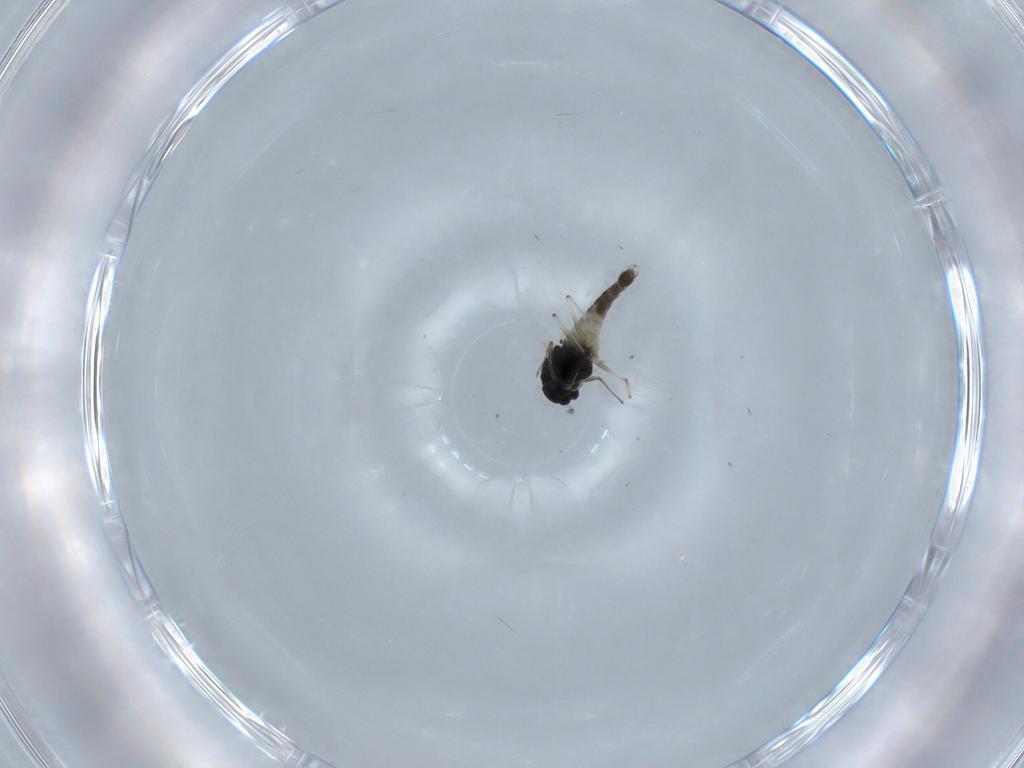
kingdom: Animalia
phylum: Arthropoda
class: Insecta
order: Diptera
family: Chironomidae
